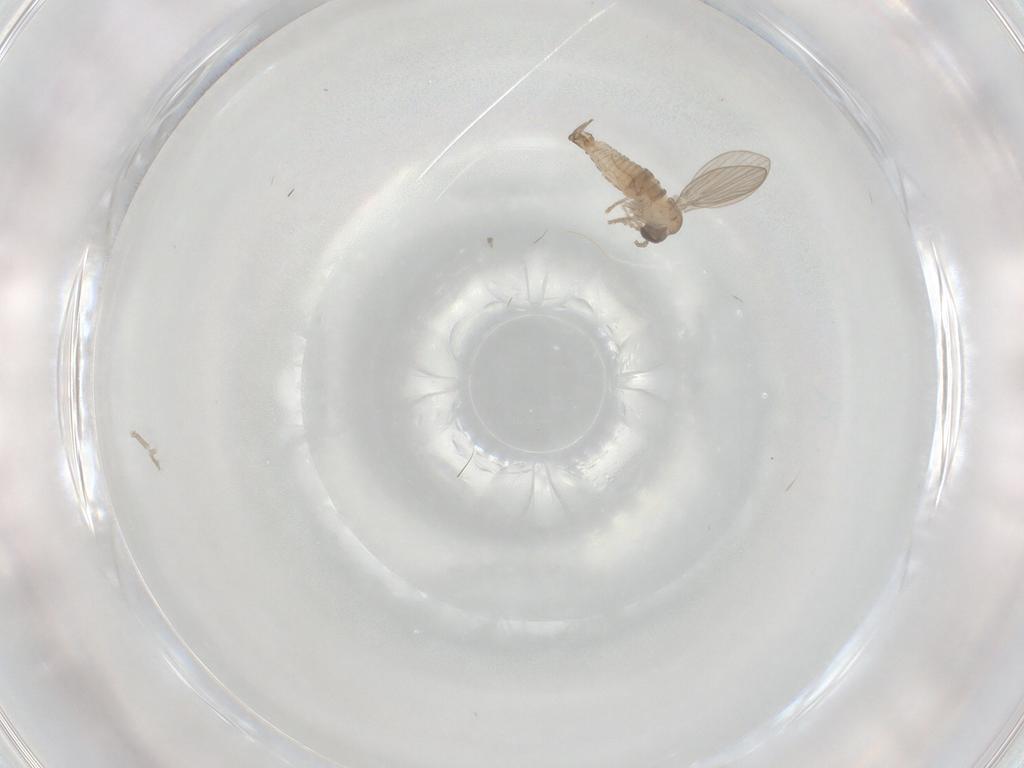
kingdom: Animalia
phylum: Arthropoda
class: Insecta
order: Diptera
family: Psychodidae
